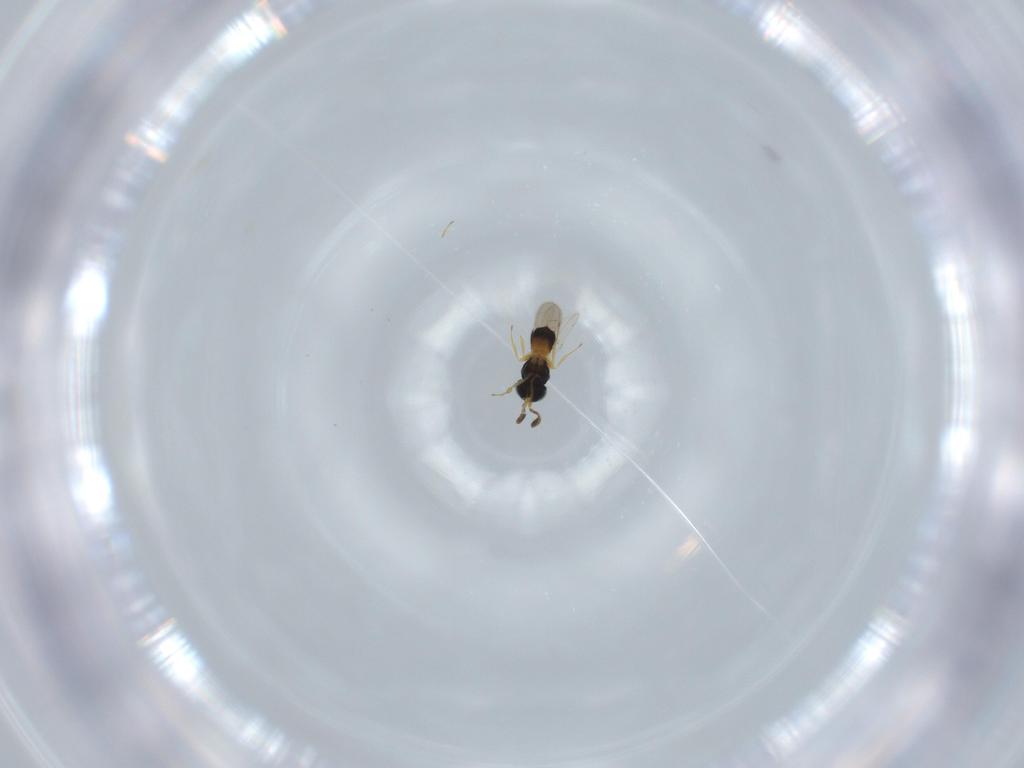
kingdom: Animalia
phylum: Arthropoda
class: Insecta
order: Hymenoptera
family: Scelionidae
